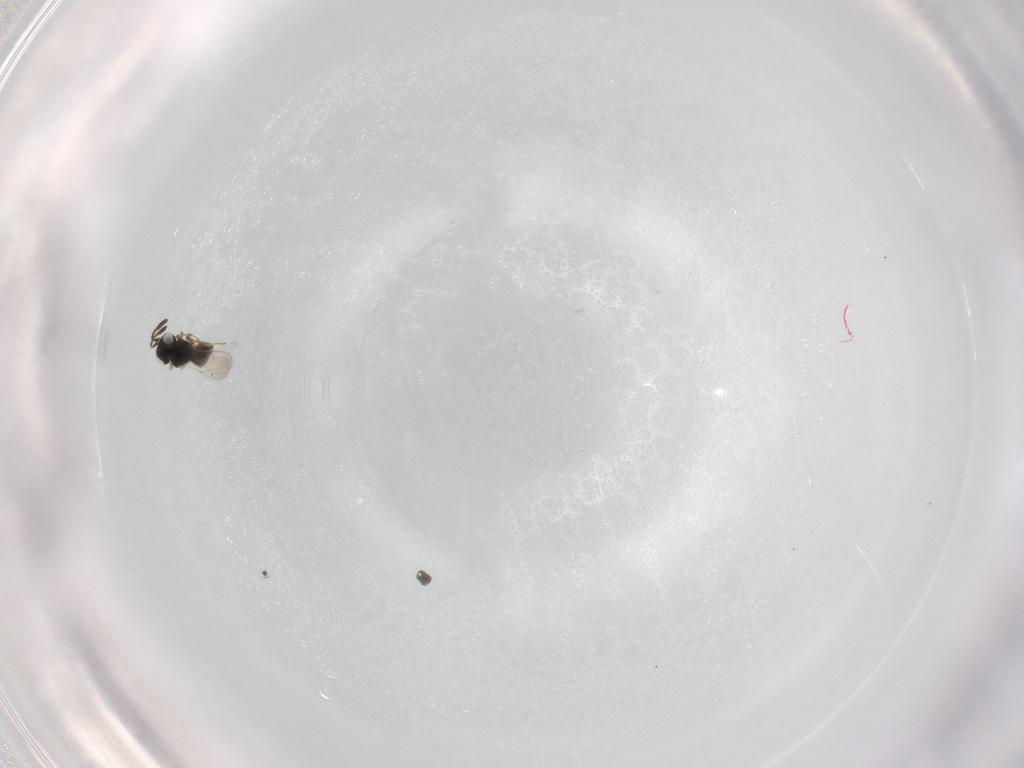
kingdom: Animalia
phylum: Arthropoda
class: Insecta
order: Hymenoptera
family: Scelionidae
